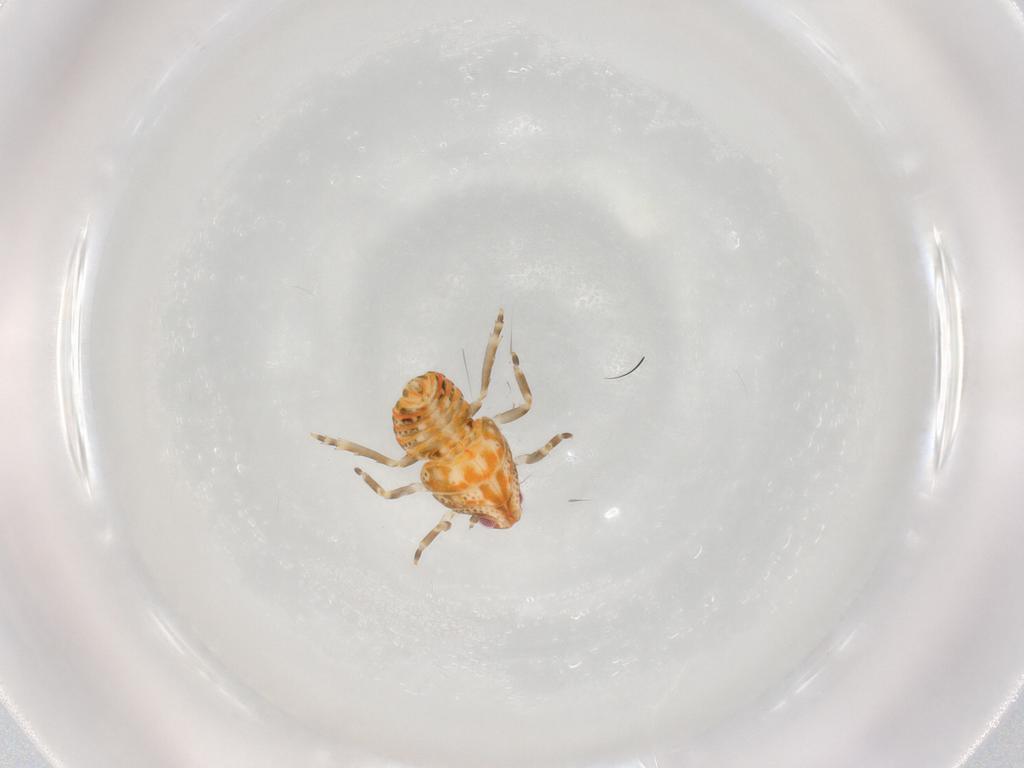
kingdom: Animalia
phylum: Arthropoda
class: Insecta
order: Hemiptera
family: Flatidae
